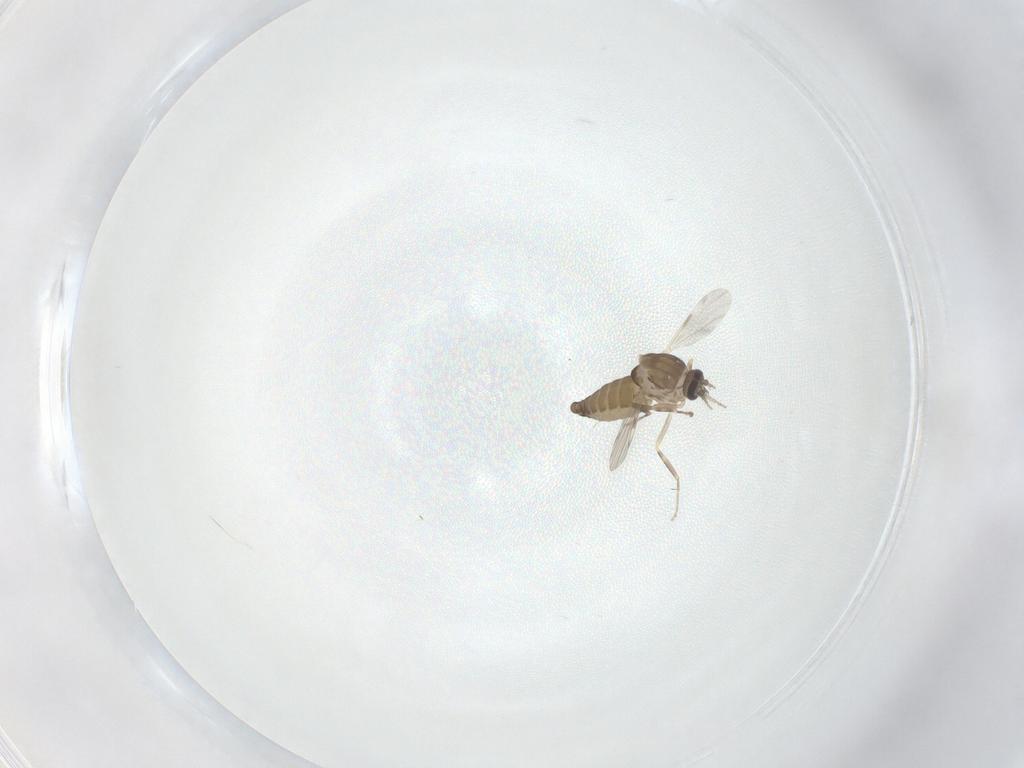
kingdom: Animalia
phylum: Arthropoda
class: Insecta
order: Diptera
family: Ceratopogonidae
